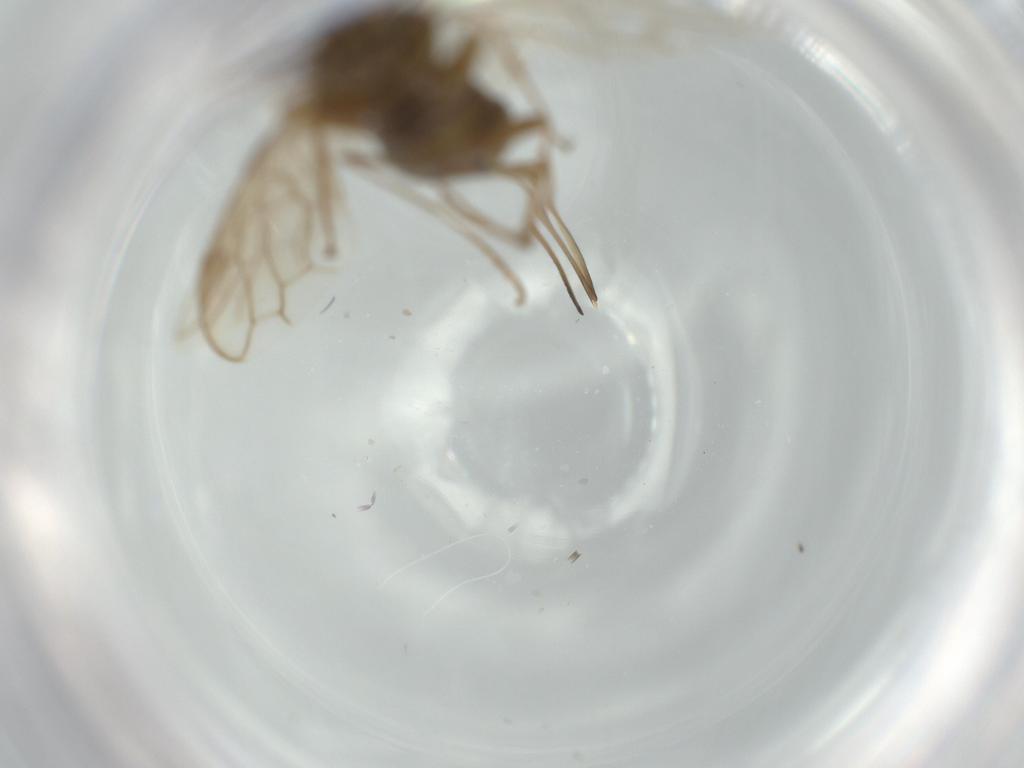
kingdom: Animalia
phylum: Arthropoda
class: Insecta
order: Hymenoptera
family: Xyelidae
